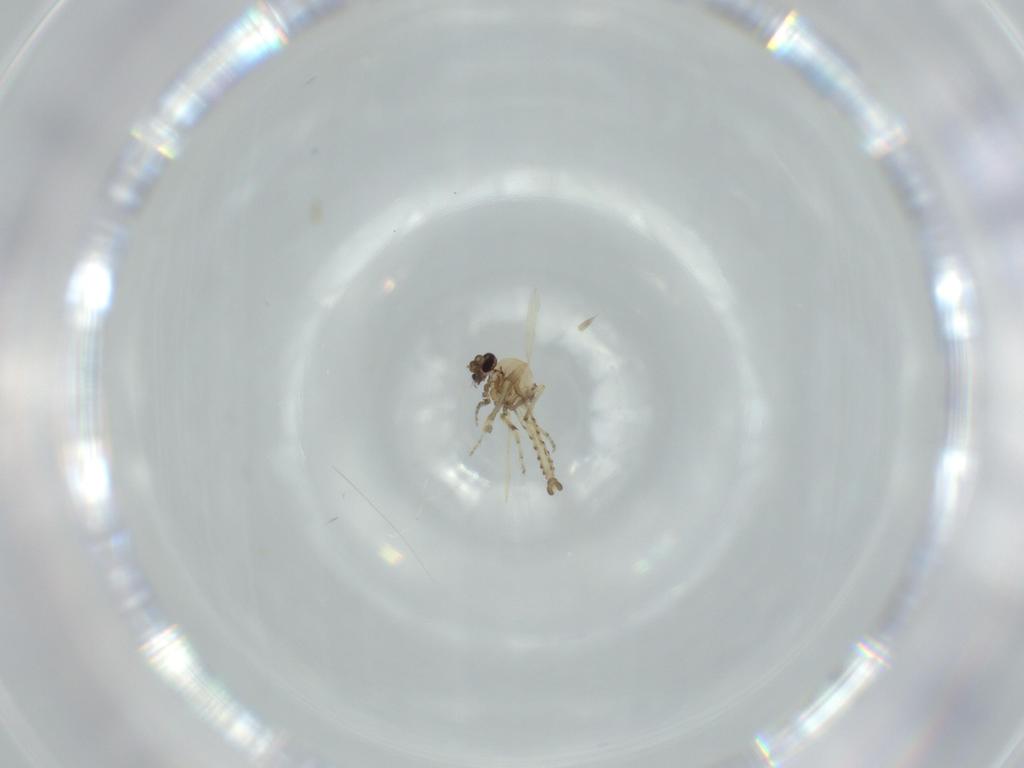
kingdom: Animalia
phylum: Arthropoda
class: Insecta
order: Diptera
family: Ceratopogonidae
